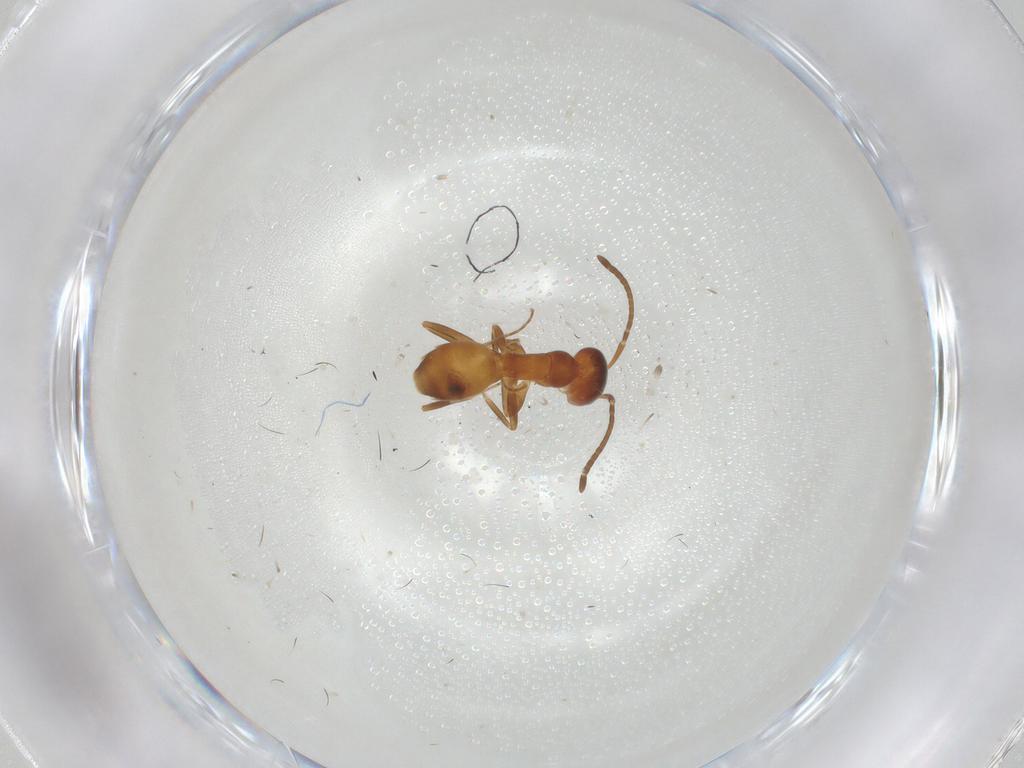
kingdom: Animalia
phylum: Arthropoda
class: Insecta
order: Hymenoptera
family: Formicidae
